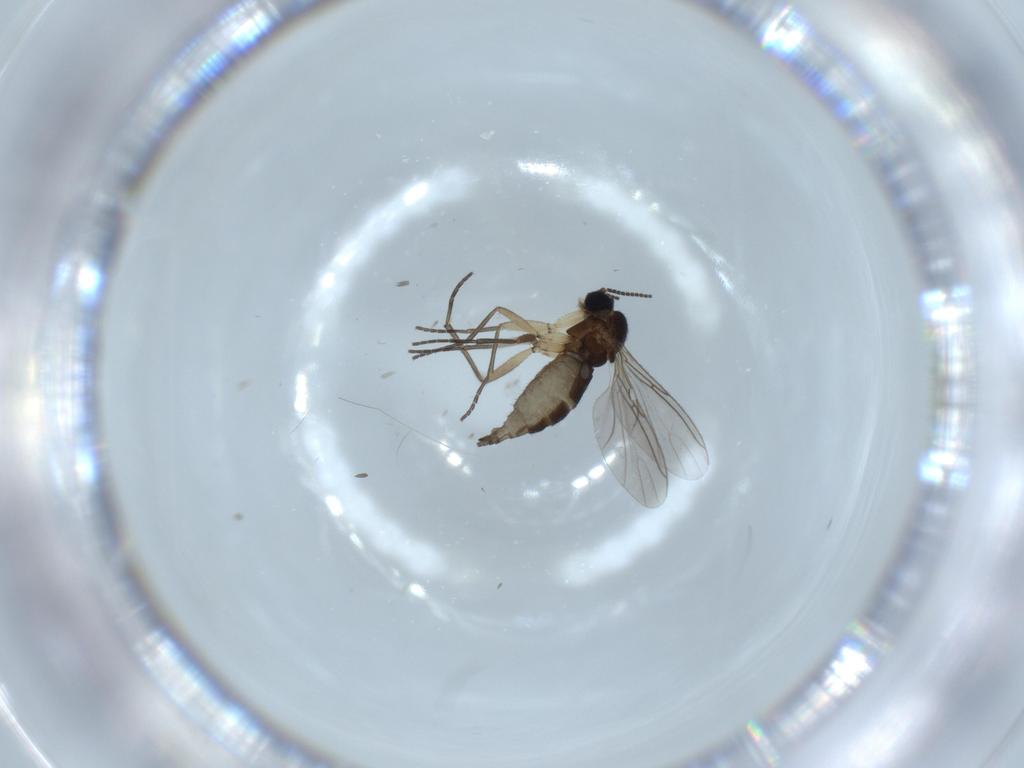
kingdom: Animalia
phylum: Arthropoda
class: Insecta
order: Diptera
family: Sciaridae
